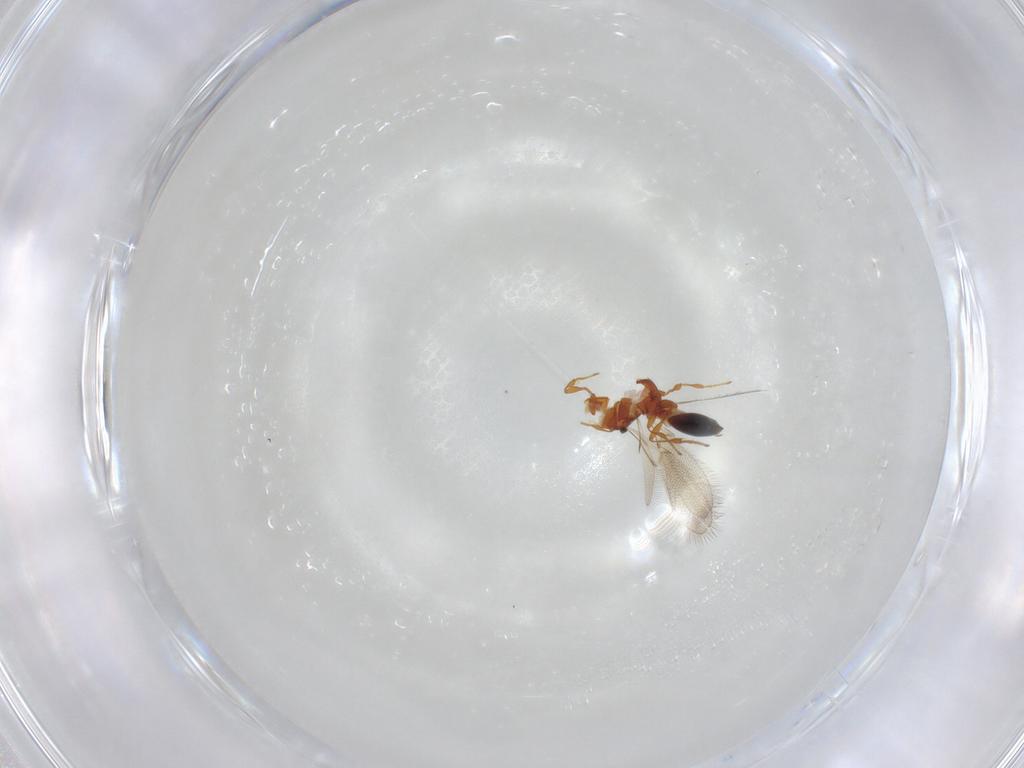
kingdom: Animalia
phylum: Arthropoda
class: Insecta
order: Hymenoptera
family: Diapriidae
